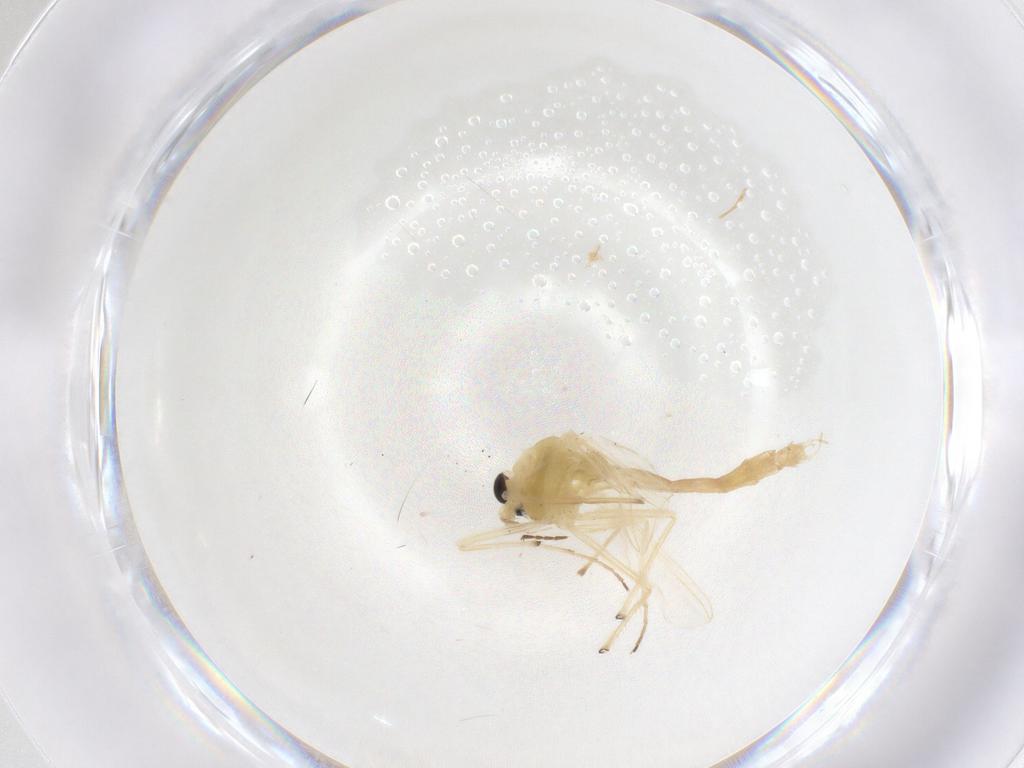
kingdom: Animalia
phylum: Arthropoda
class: Insecta
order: Diptera
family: Chironomidae
